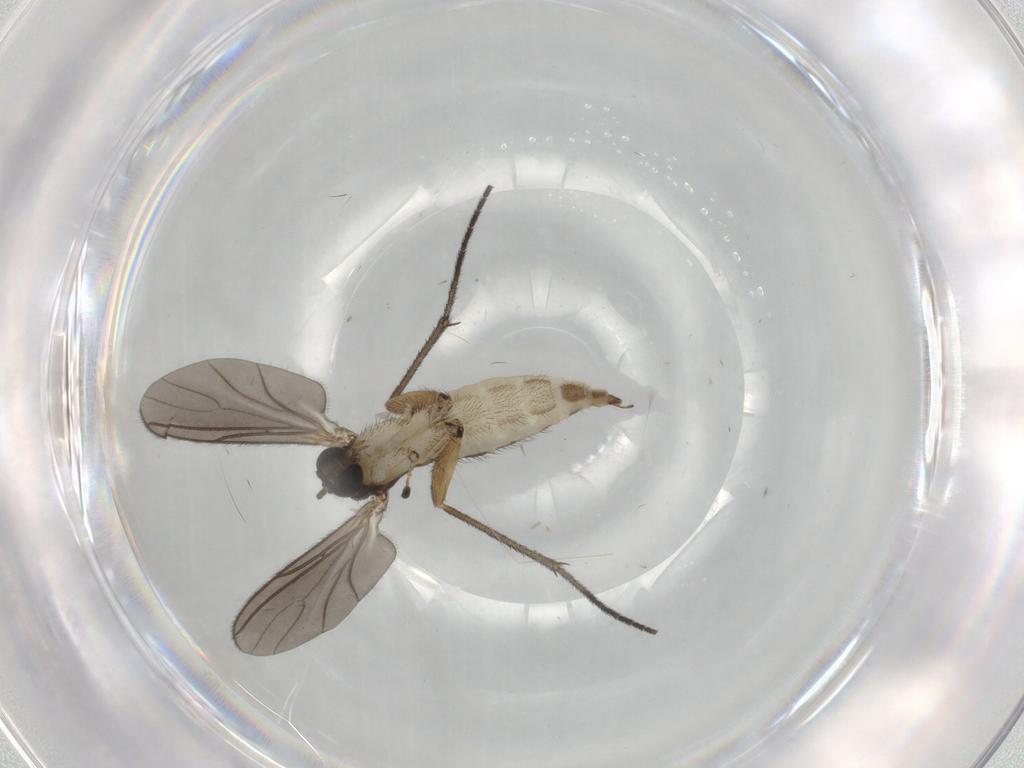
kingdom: Animalia
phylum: Arthropoda
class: Insecta
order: Diptera
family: Sciaridae
